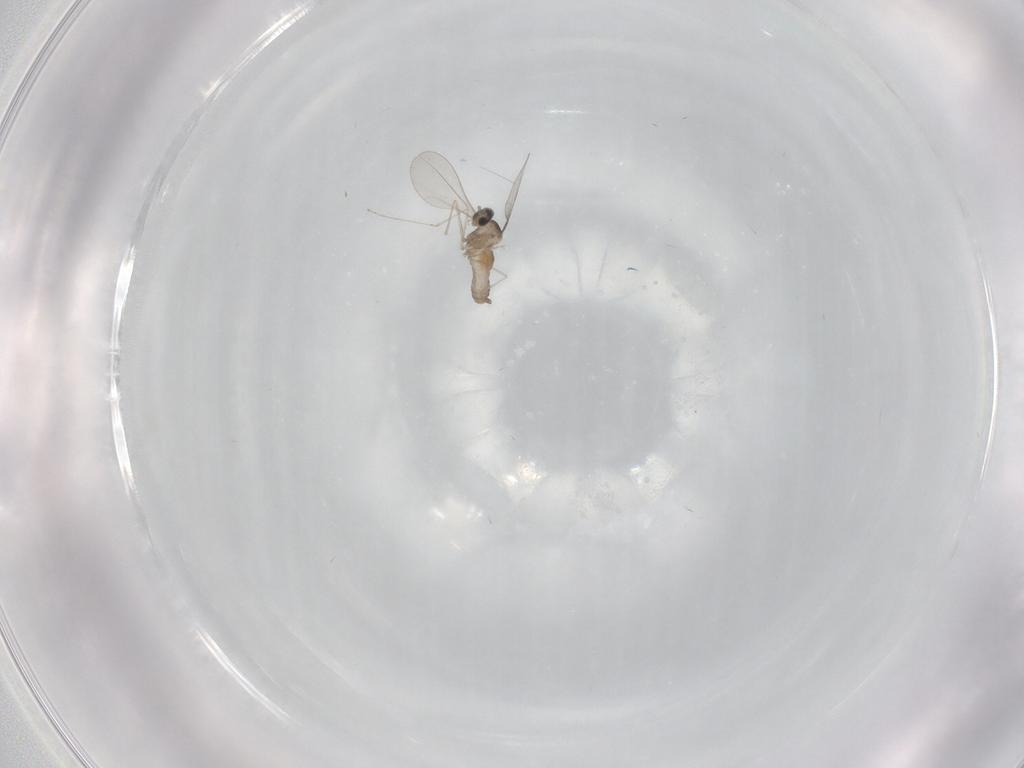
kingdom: Animalia
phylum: Arthropoda
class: Insecta
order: Diptera
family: Cecidomyiidae
